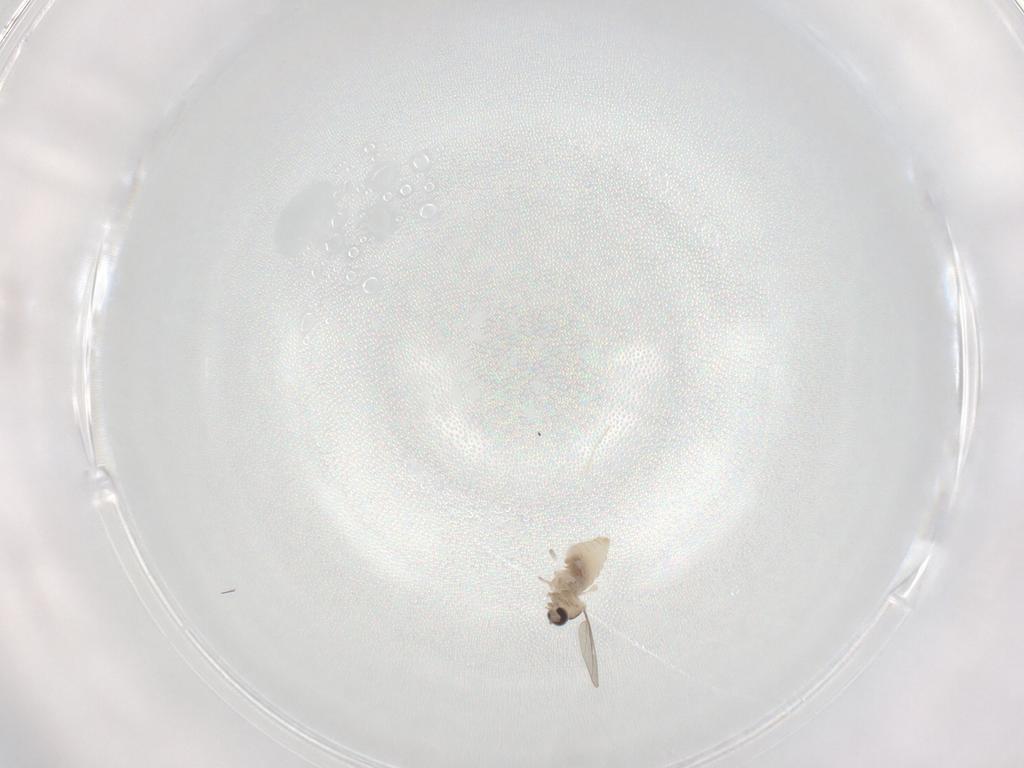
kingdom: Animalia
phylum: Arthropoda
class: Insecta
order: Diptera
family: Cecidomyiidae
